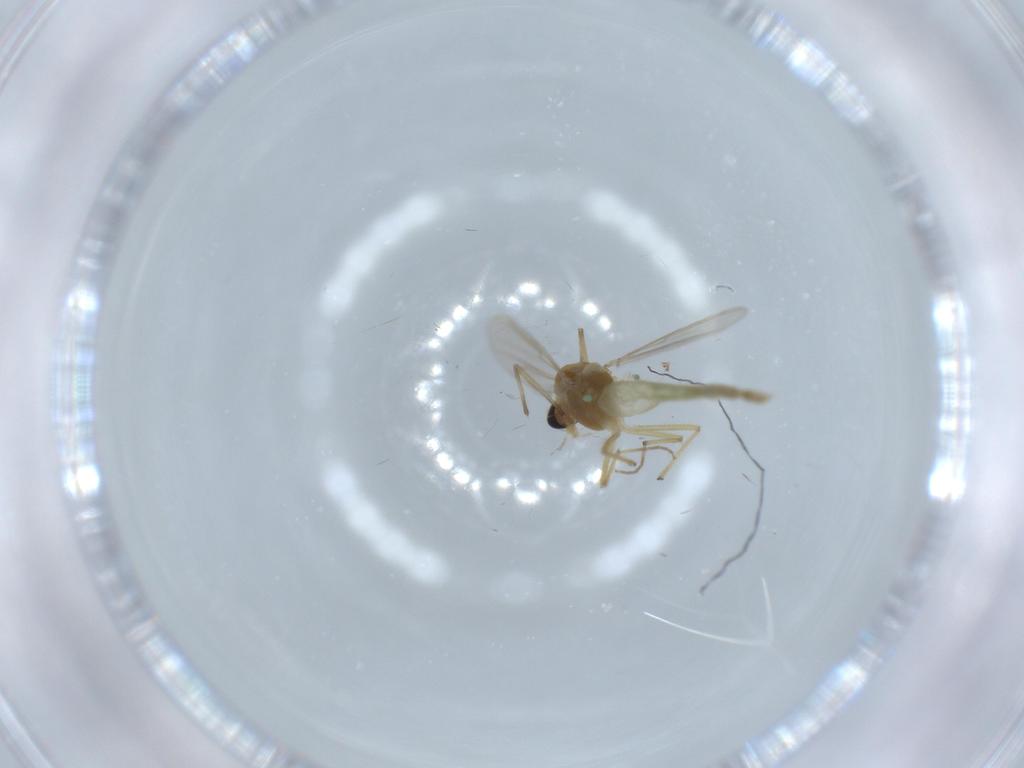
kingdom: Animalia
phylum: Arthropoda
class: Insecta
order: Diptera
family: Chironomidae
